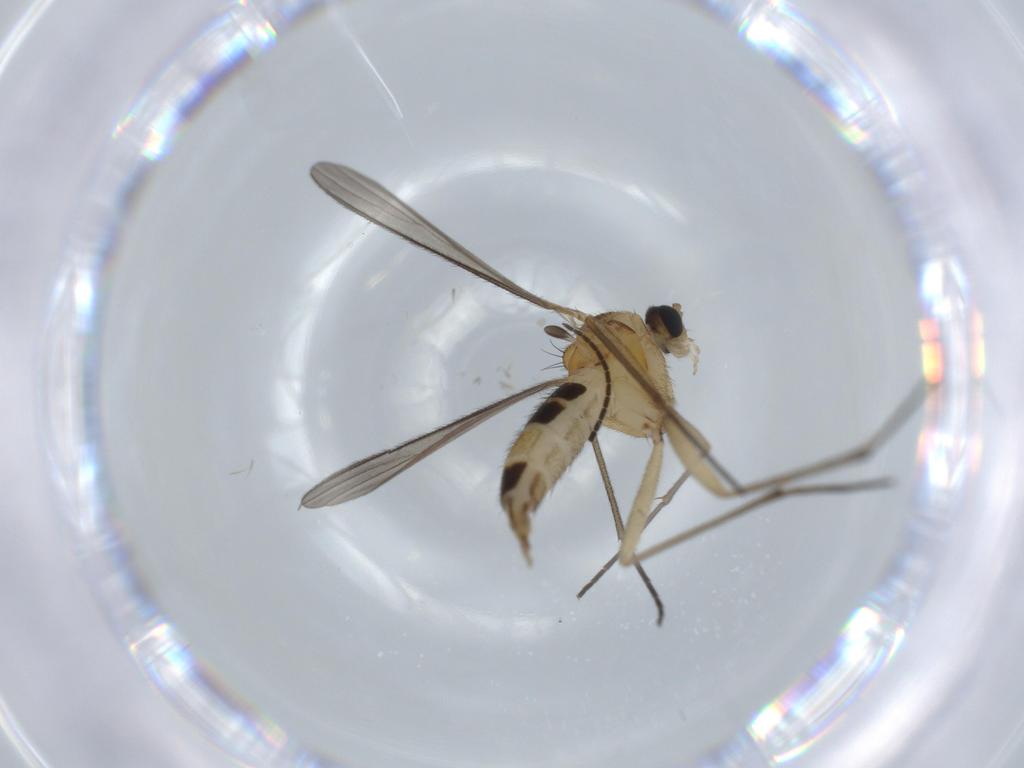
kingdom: Animalia
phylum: Arthropoda
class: Insecta
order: Diptera
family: Sciaridae
